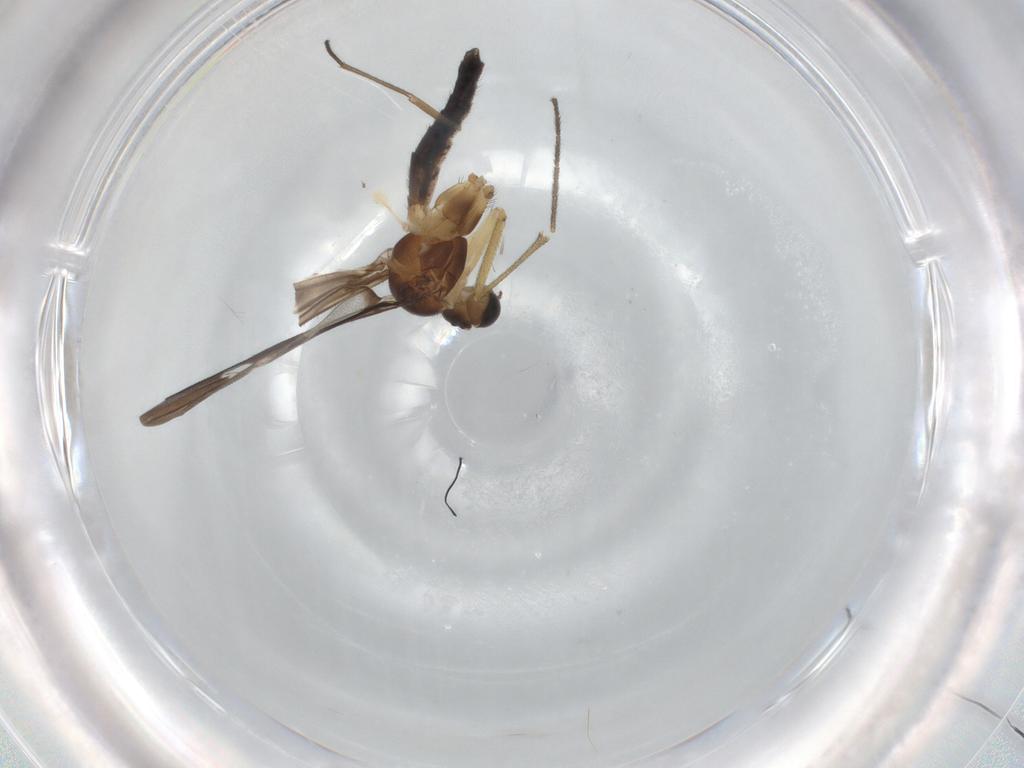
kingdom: Animalia
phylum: Arthropoda
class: Insecta
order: Diptera
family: Keroplatidae
